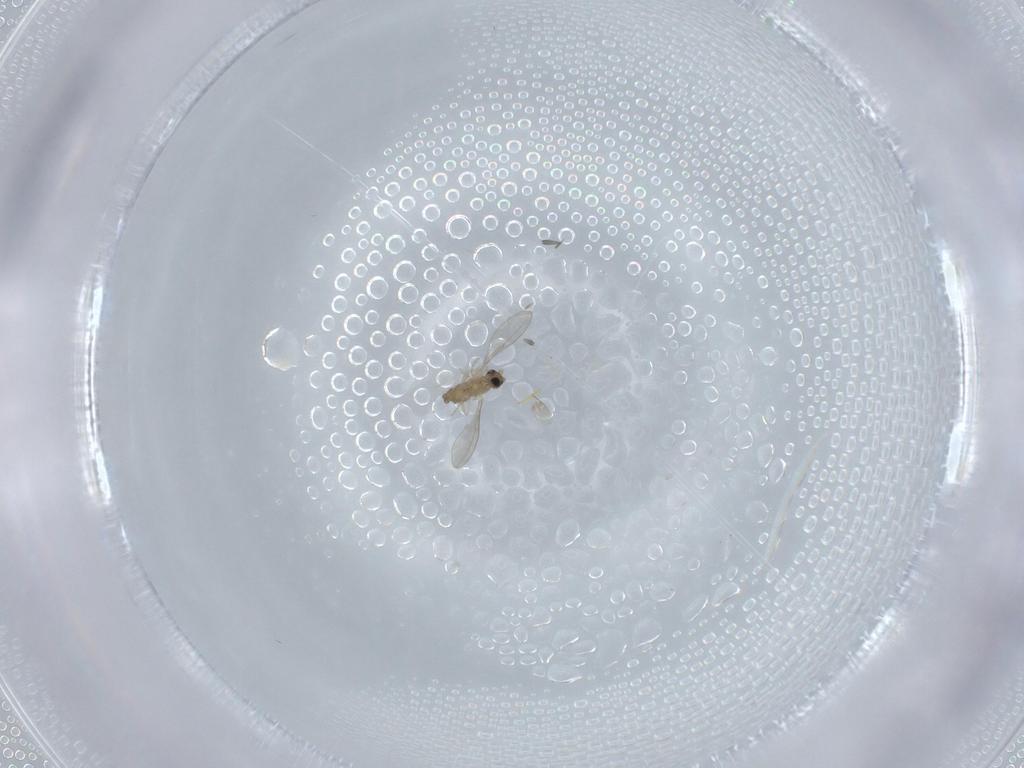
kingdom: Animalia
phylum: Arthropoda
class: Insecta
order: Diptera
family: Cecidomyiidae
